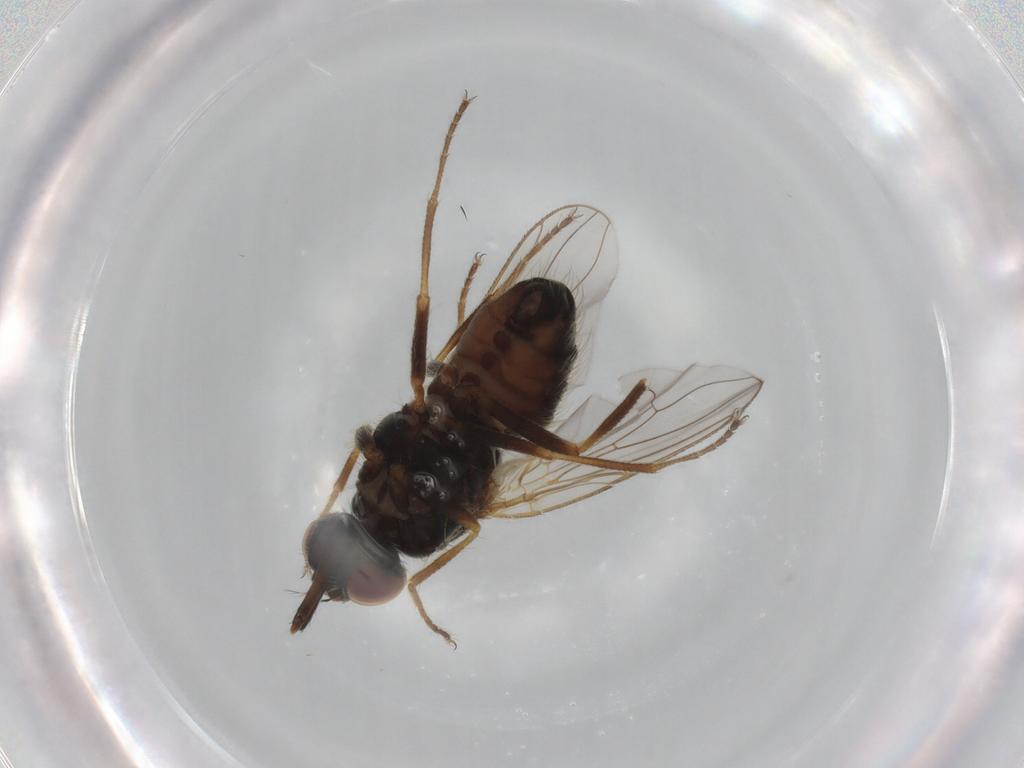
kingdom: Animalia
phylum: Arthropoda
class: Insecta
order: Diptera
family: Muscidae
